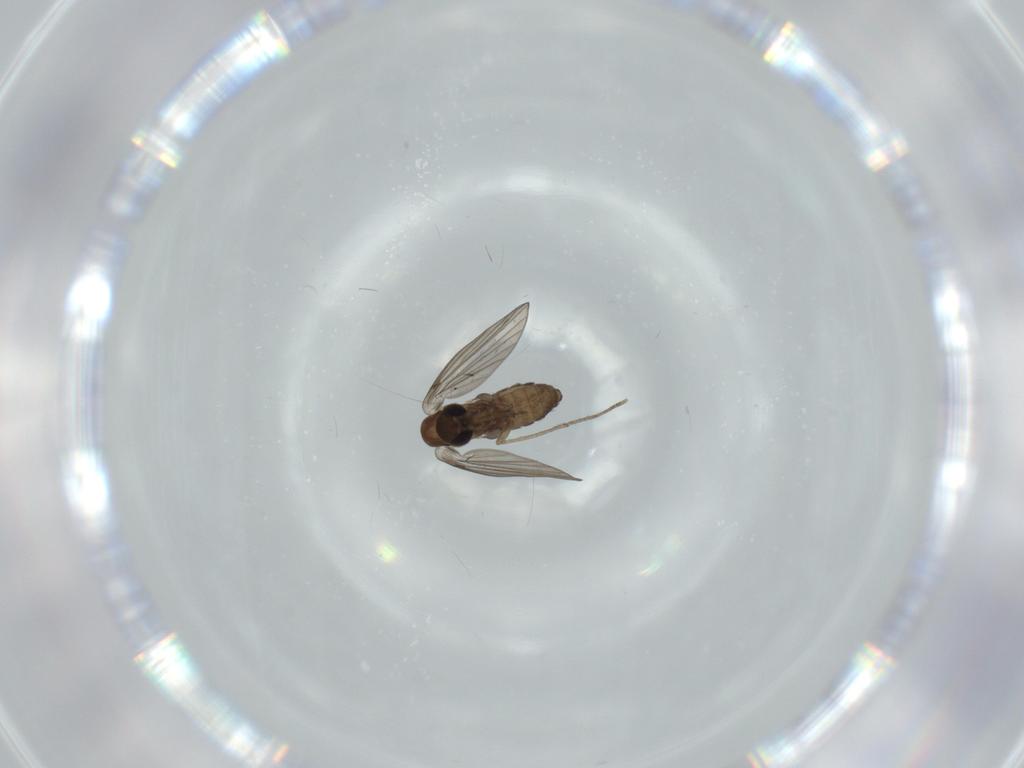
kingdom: Animalia
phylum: Arthropoda
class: Insecta
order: Diptera
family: Psychodidae
